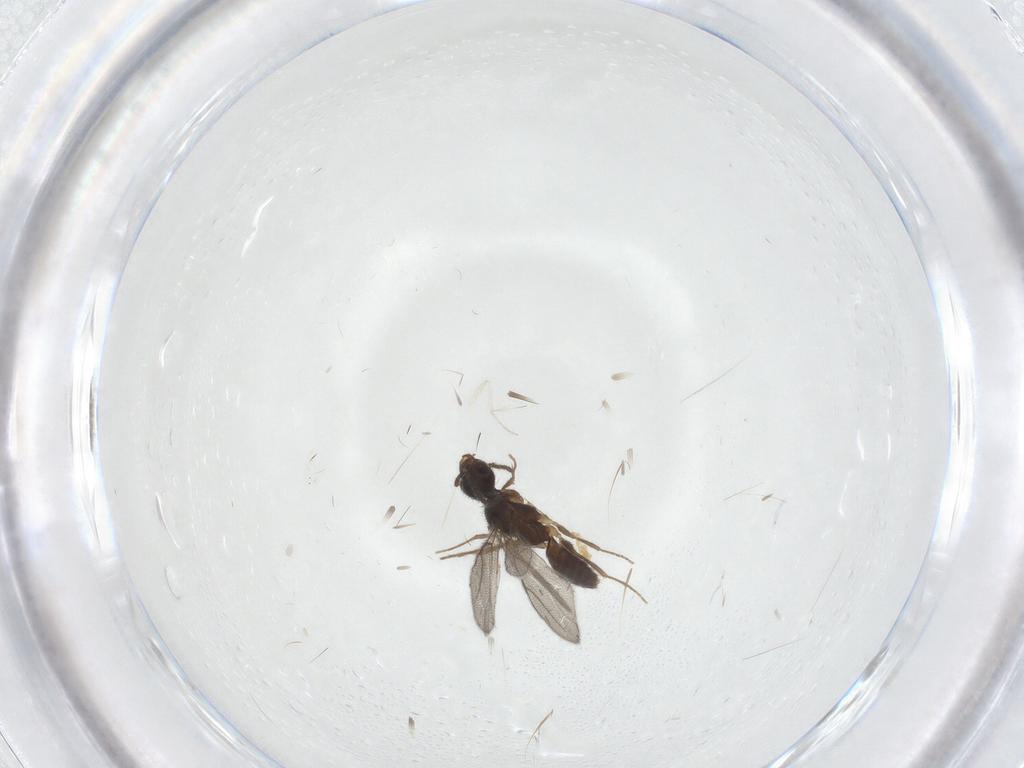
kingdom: Animalia
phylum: Arthropoda
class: Insecta
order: Hymenoptera
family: Bethylidae
